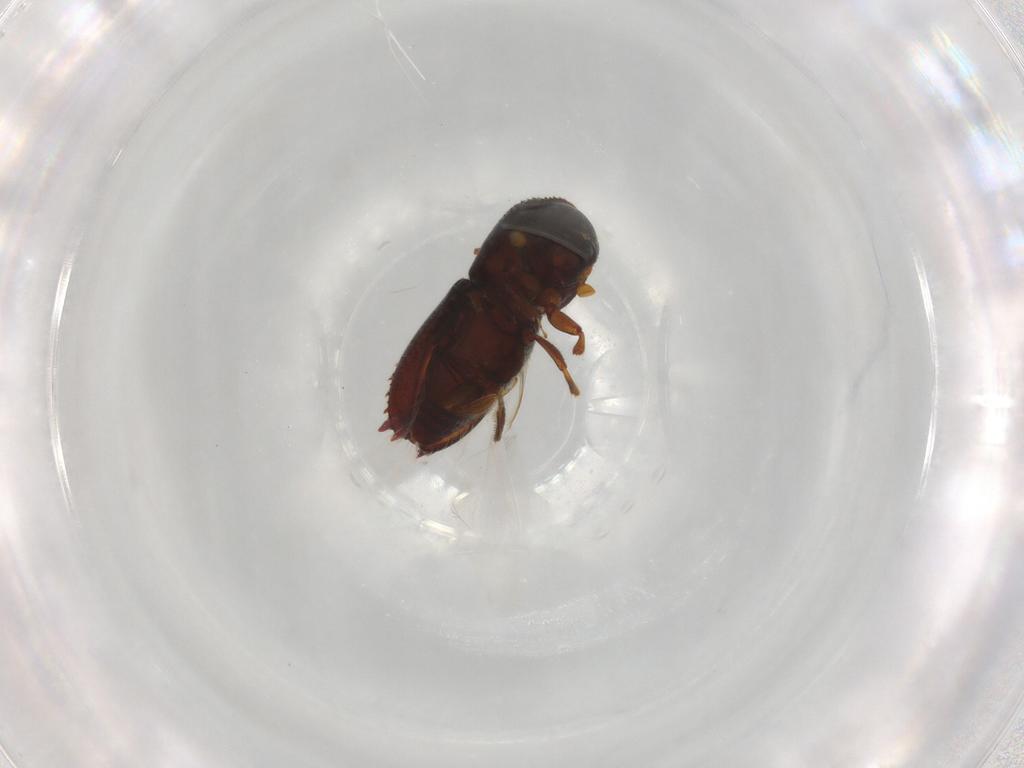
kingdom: Animalia
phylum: Arthropoda
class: Insecta
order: Coleoptera
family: Curculionidae
